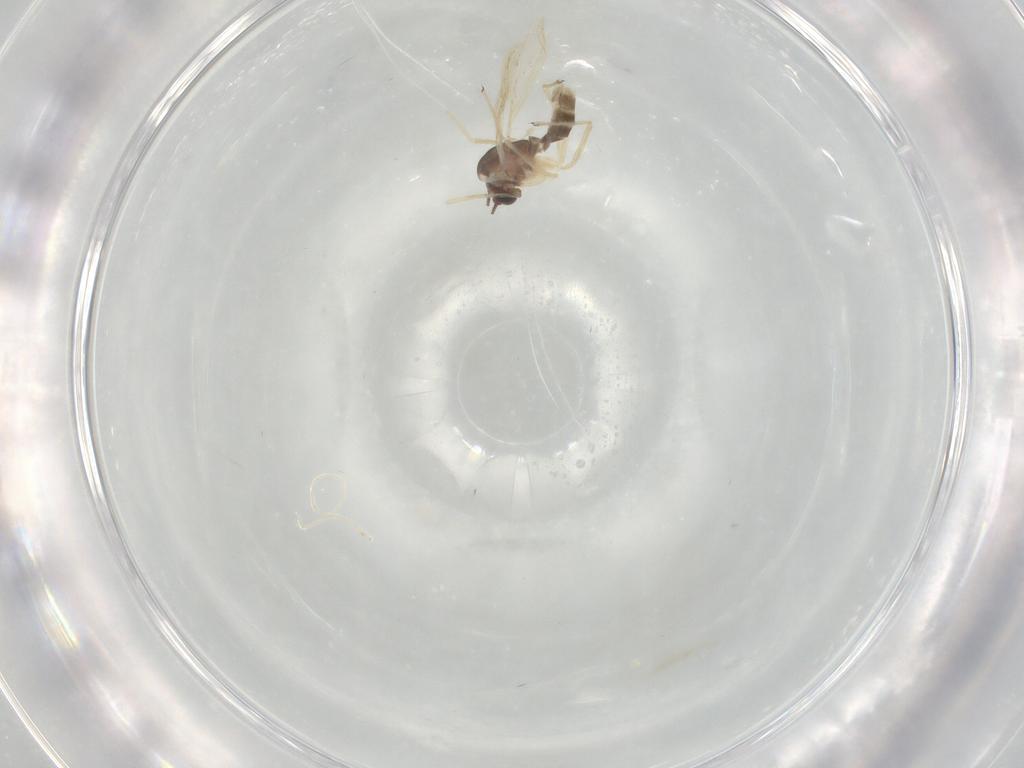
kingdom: Animalia
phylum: Arthropoda
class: Insecta
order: Diptera
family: Chironomidae
